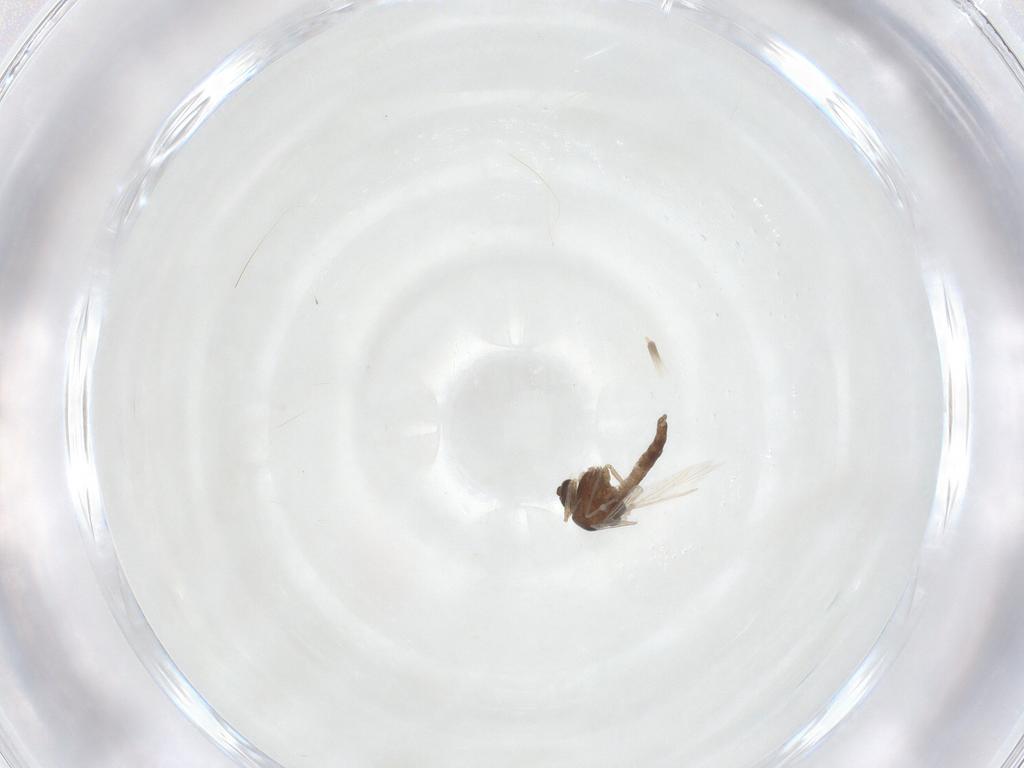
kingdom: Animalia
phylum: Arthropoda
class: Insecta
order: Diptera
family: Chironomidae
